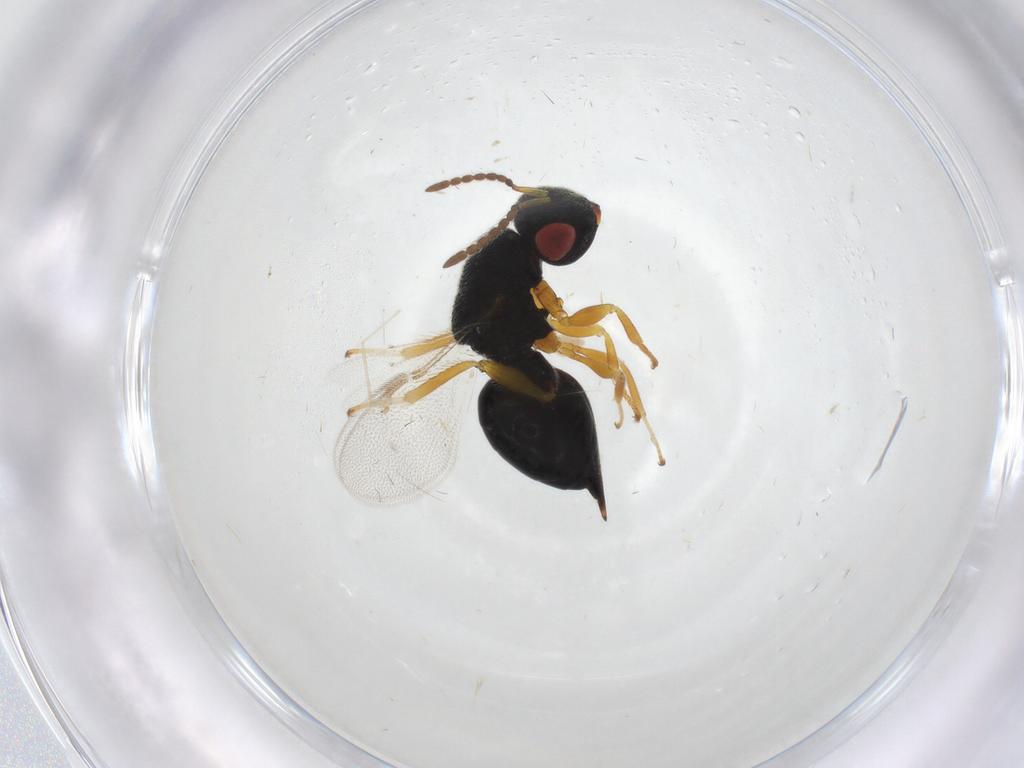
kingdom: Animalia
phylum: Arthropoda
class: Insecta
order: Hymenoptera
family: Eurytomidae
